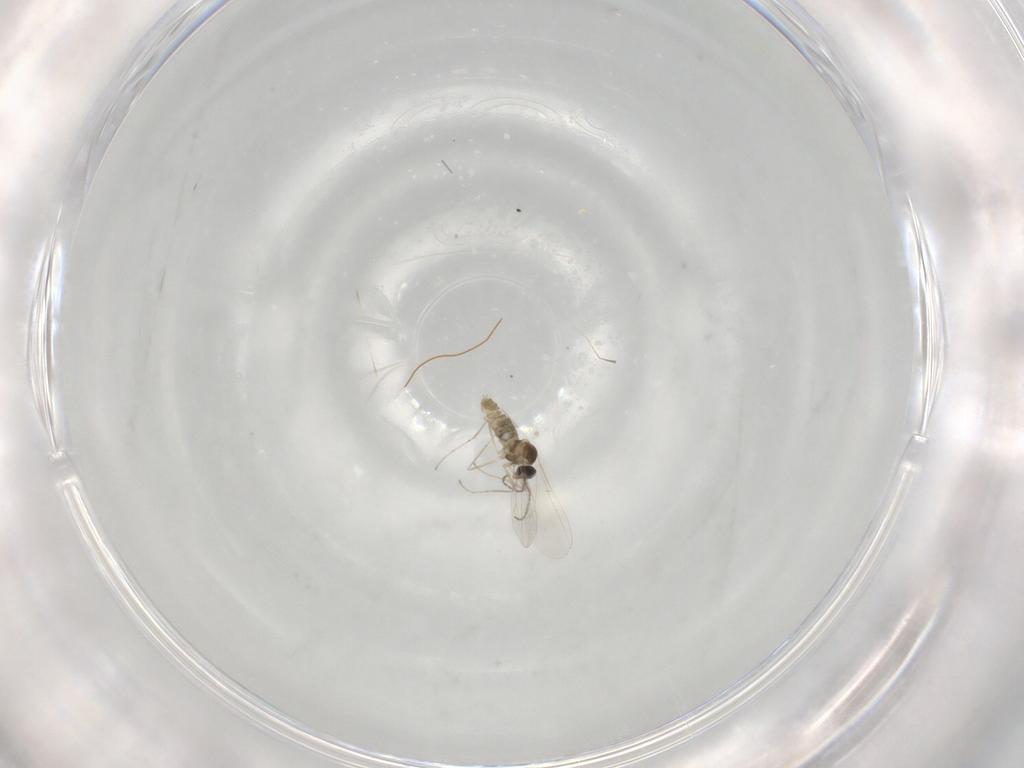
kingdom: Animalia
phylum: Arthropoda
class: Insecta
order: Diptera
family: Cecidomyiidae
